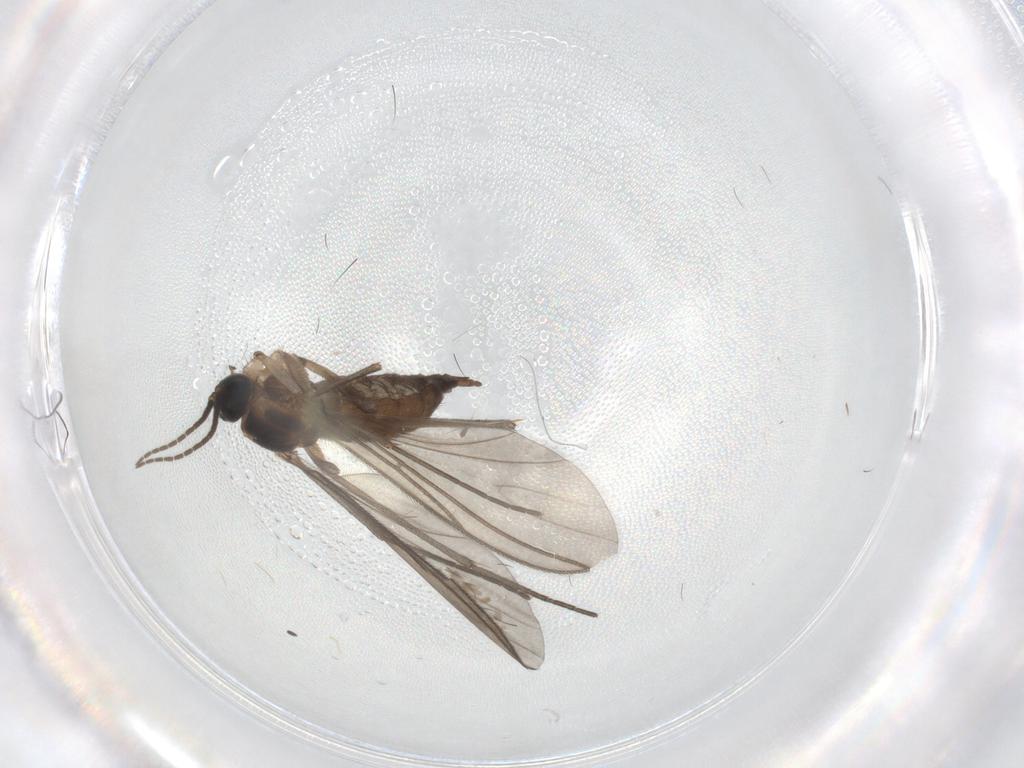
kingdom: Animalia
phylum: Arthropoda
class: Insecta
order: Diptera
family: Sciaridae
